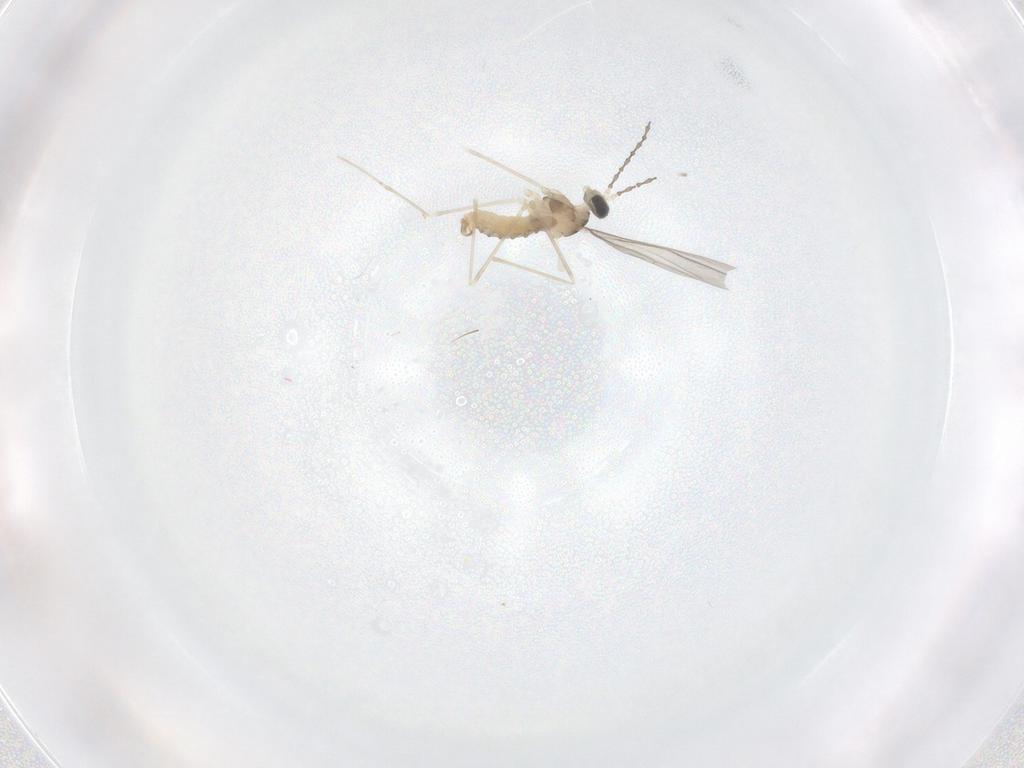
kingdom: Animalia
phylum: Arthropoda
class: Insecta
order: Diptera
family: Cecidomyiidae
